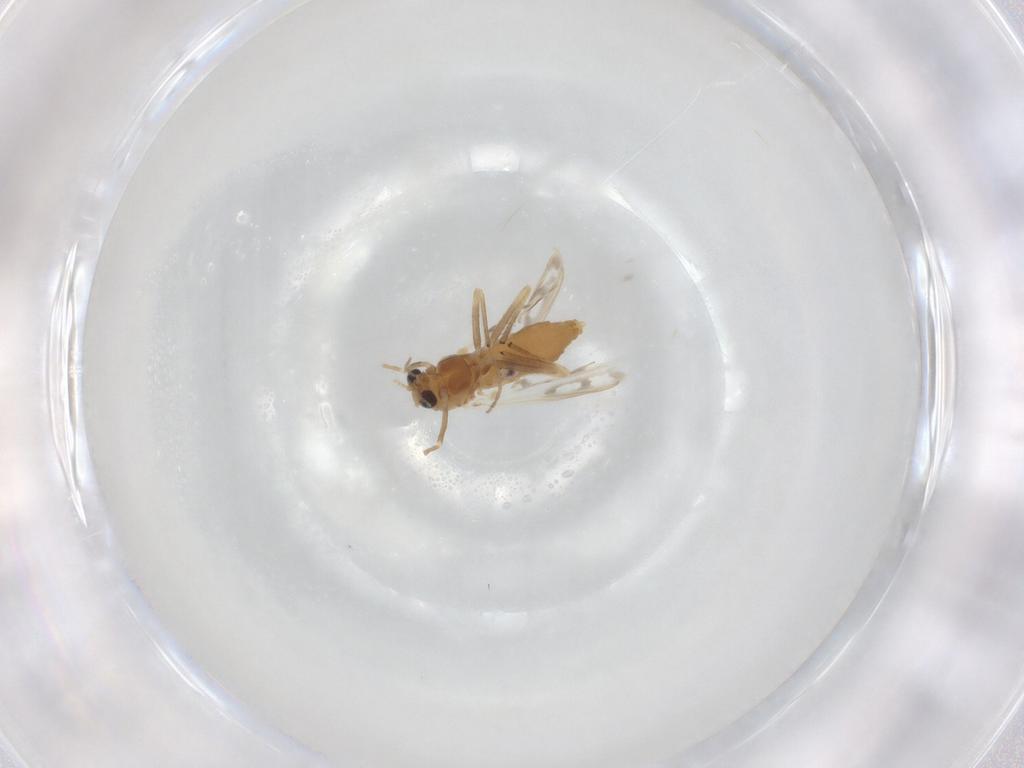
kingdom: Animalia
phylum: Arthropoda
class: Insecta
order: Diptera
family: Chironomidae
